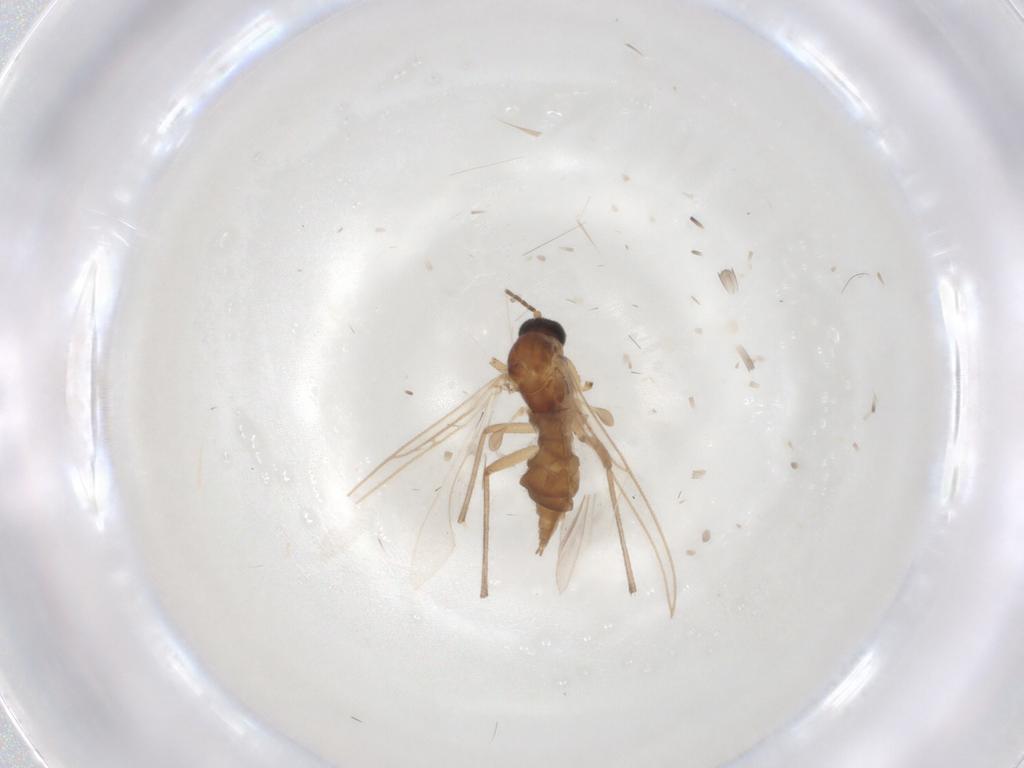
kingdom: Animalia
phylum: Arthropoda
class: Insecta
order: Diptera
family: Sciaridae
